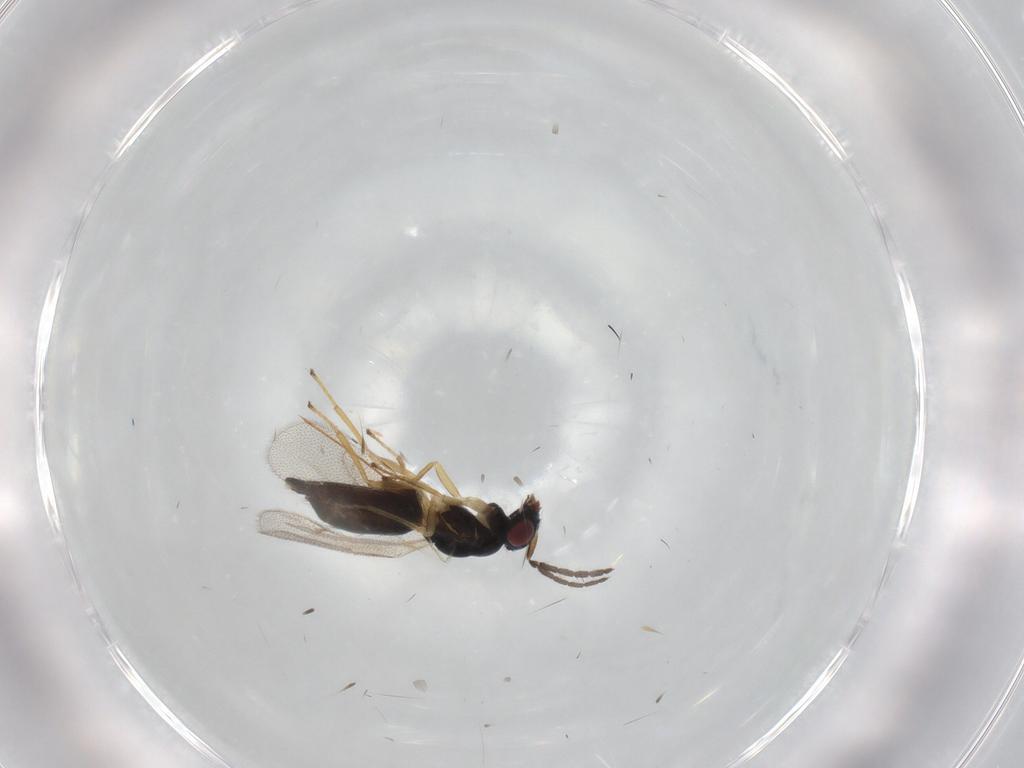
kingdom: Animalia
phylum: Arthropoda
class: Insecta
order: Hymenoptera
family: Eulophidae
